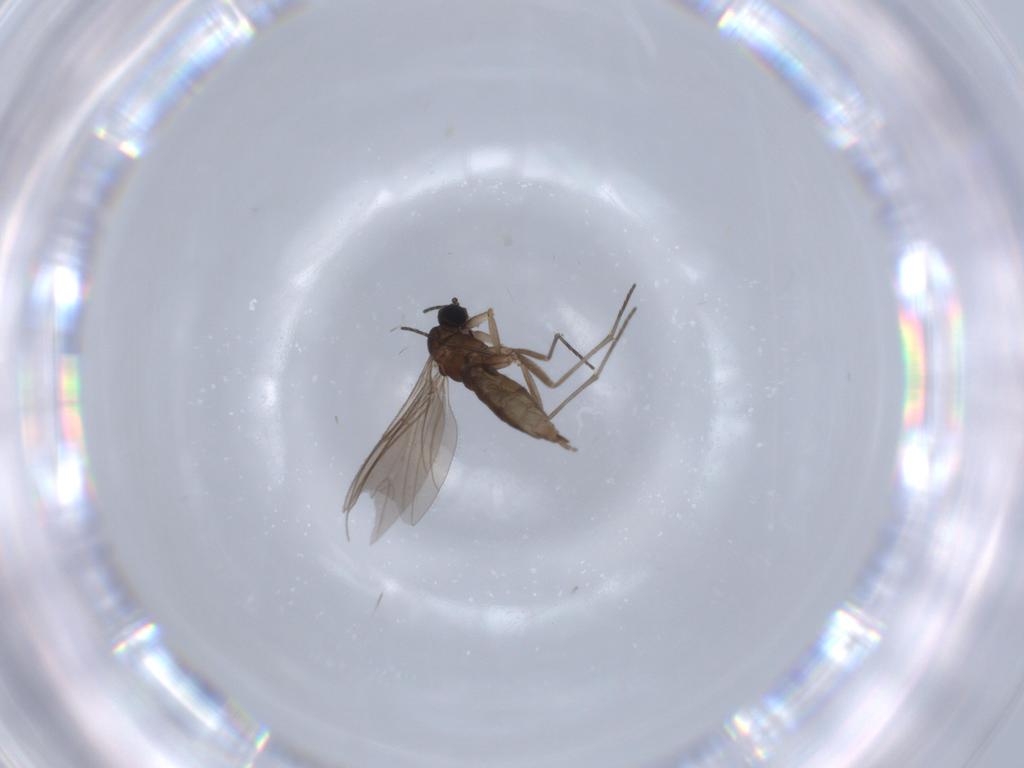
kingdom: Animalia
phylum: Arthropoda
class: Insecta
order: Diptera
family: Sciaridae
